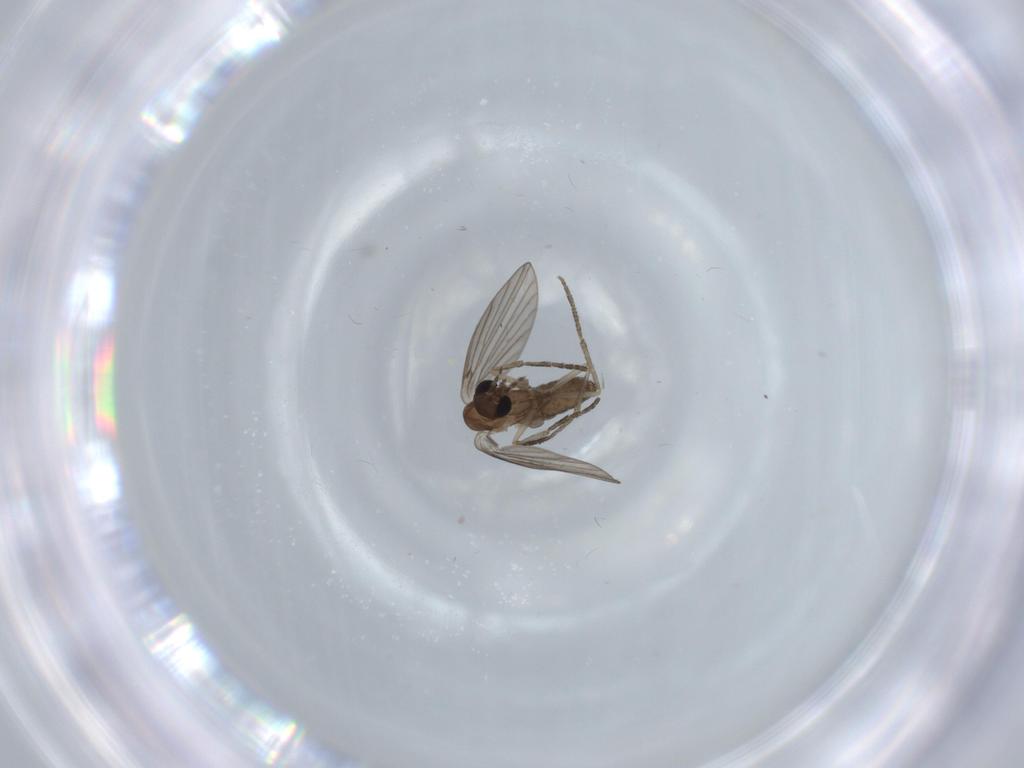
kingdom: Animalia
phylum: Arthropoda
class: Insecta
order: Diptera
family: Psychodidae
